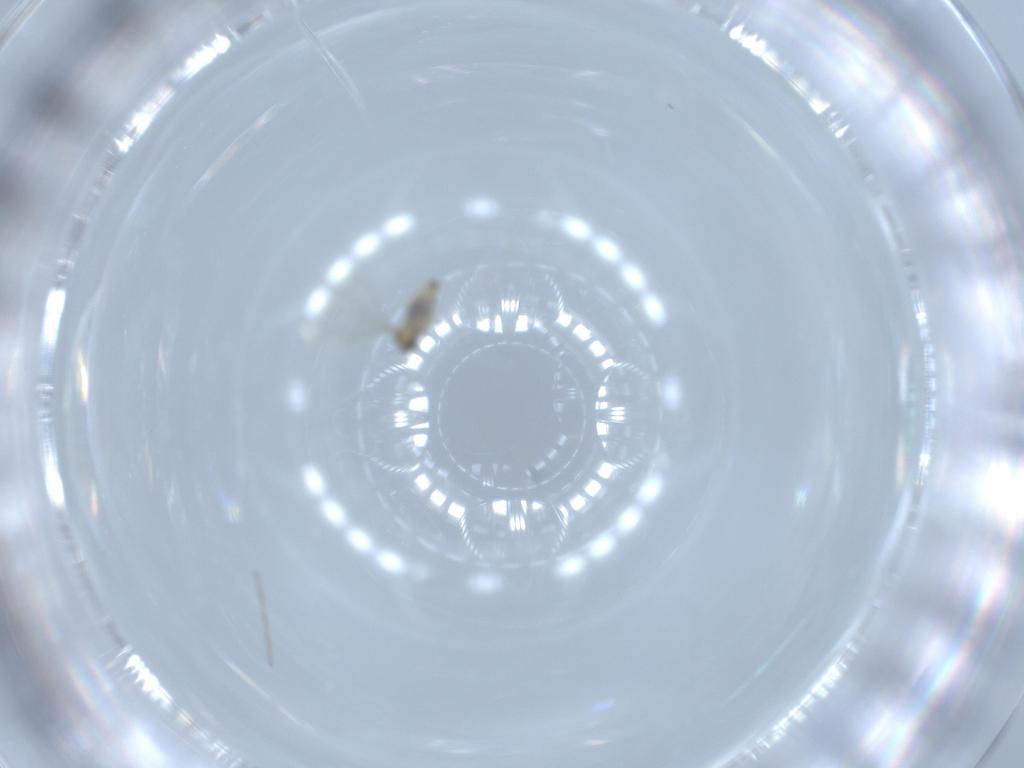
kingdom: Animalia
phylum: Arthropoda
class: Insecta
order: Diptera
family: Cecidomyiidae
